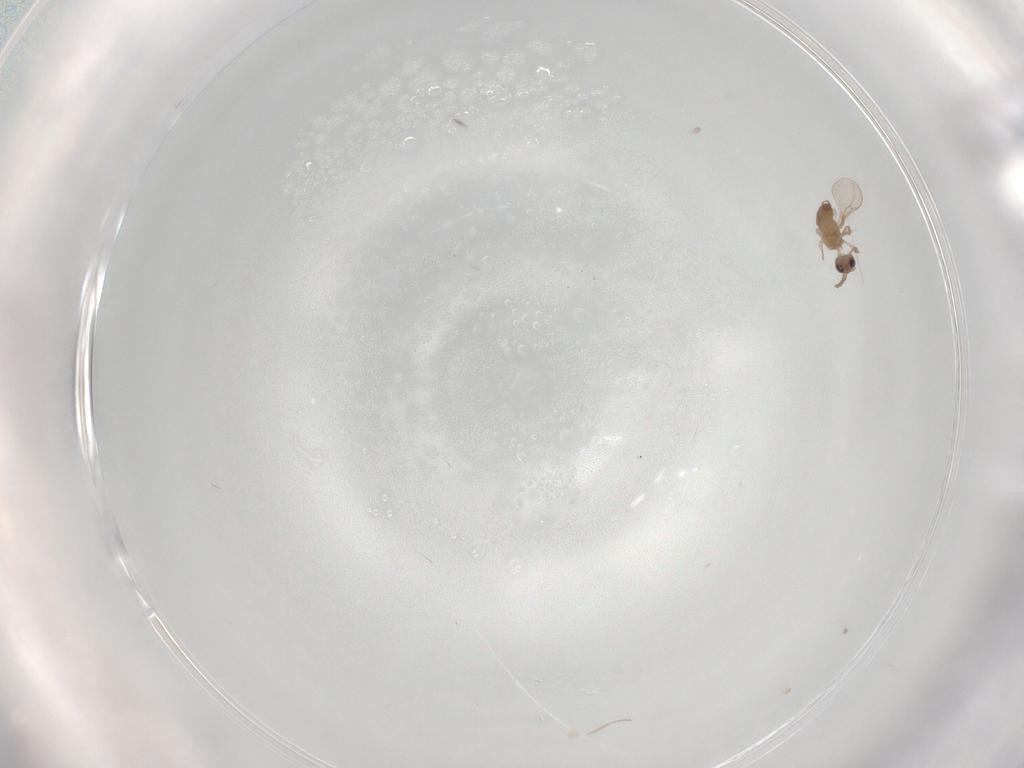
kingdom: Animalia
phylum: Arthropoda
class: Insecta
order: Diptera
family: Cecidomyiidae
